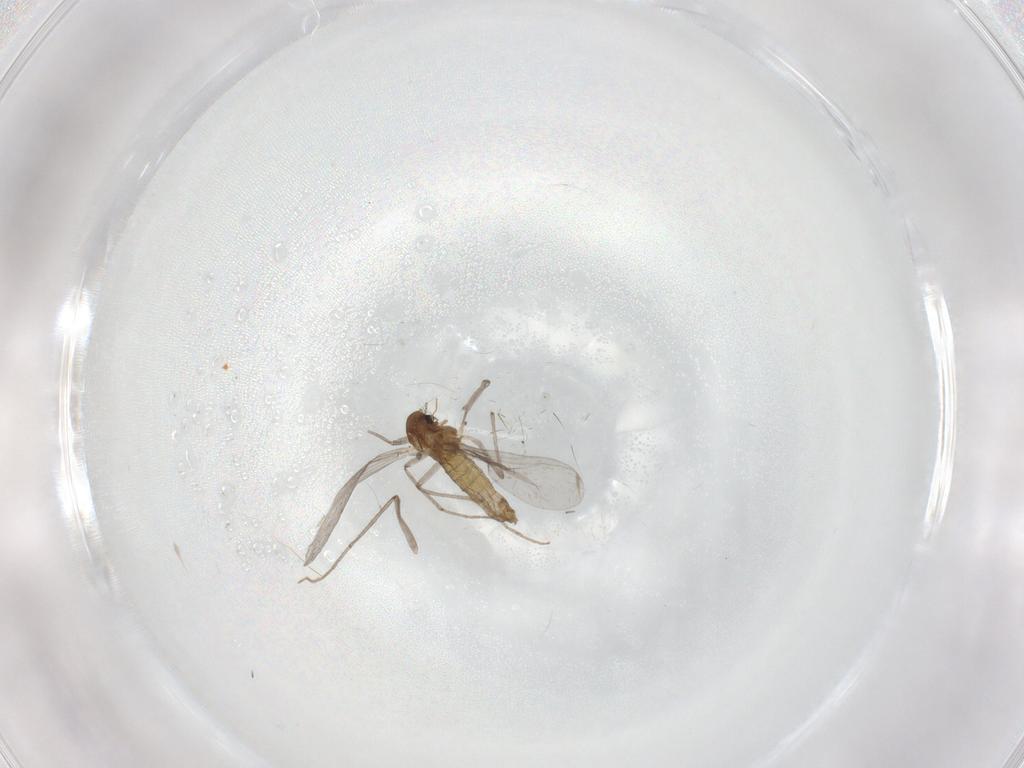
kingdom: Animalia
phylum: Arthropoda
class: Insecta
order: Diptera
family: Chironomidae
